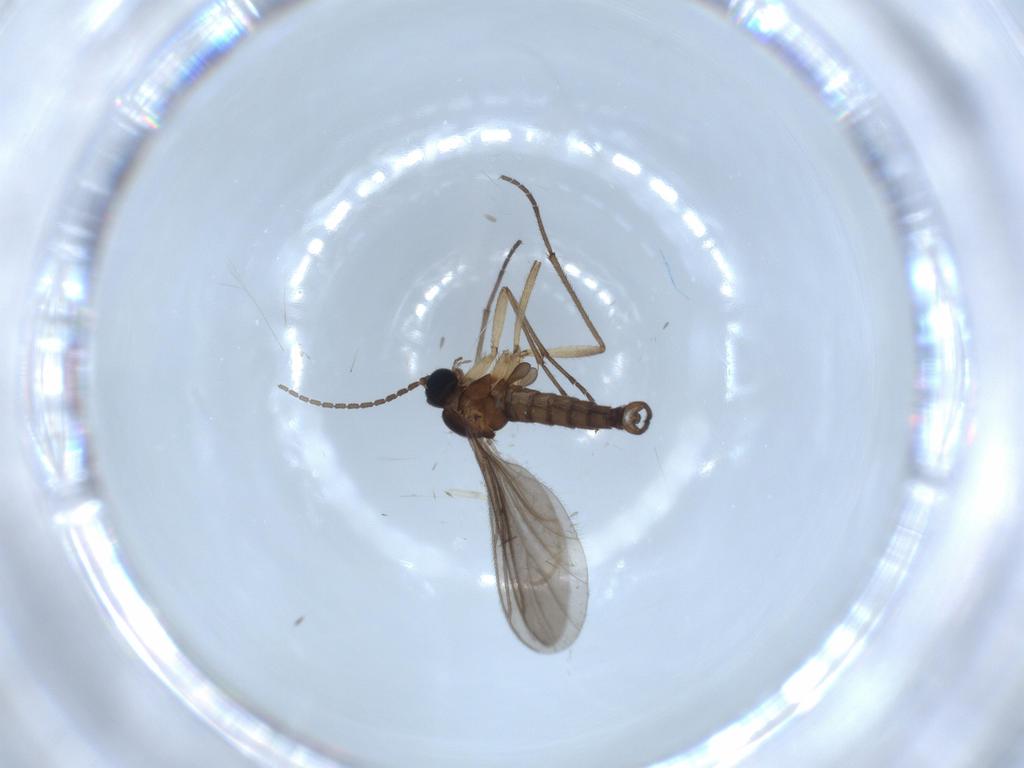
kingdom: Animalia
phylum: Arthropoda
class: Insecta
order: Diptera
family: Sciaridae
